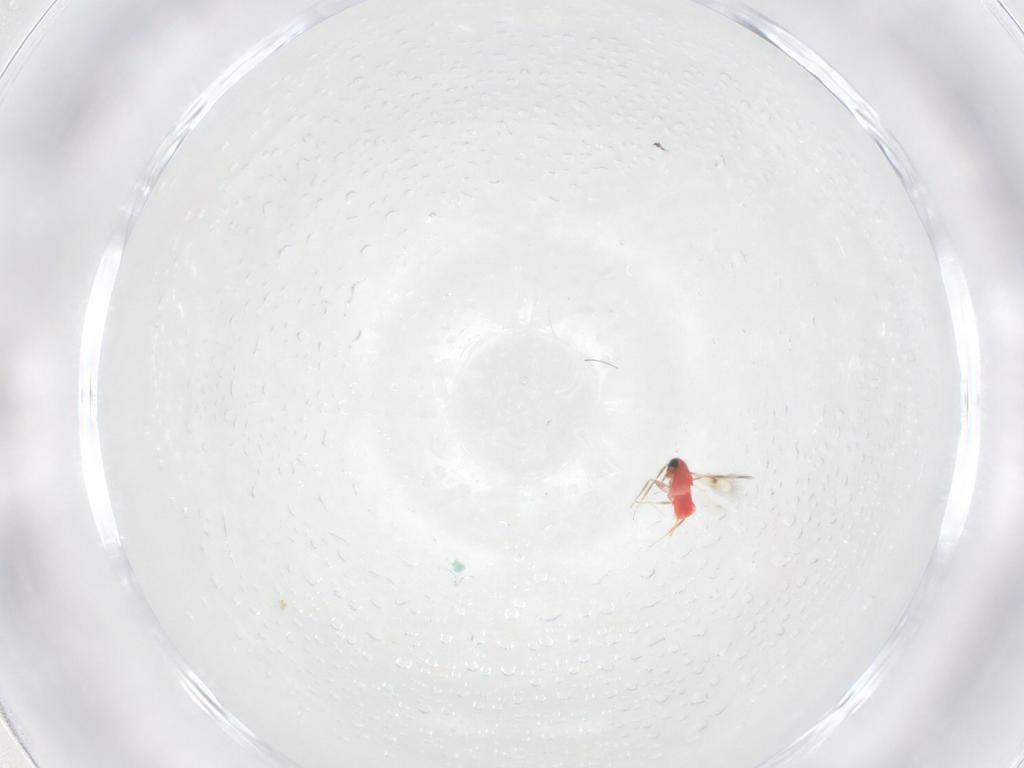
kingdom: Animalia
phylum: Arthropoda
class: Insecta
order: Hymenoptera
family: Trichogrammatidae
